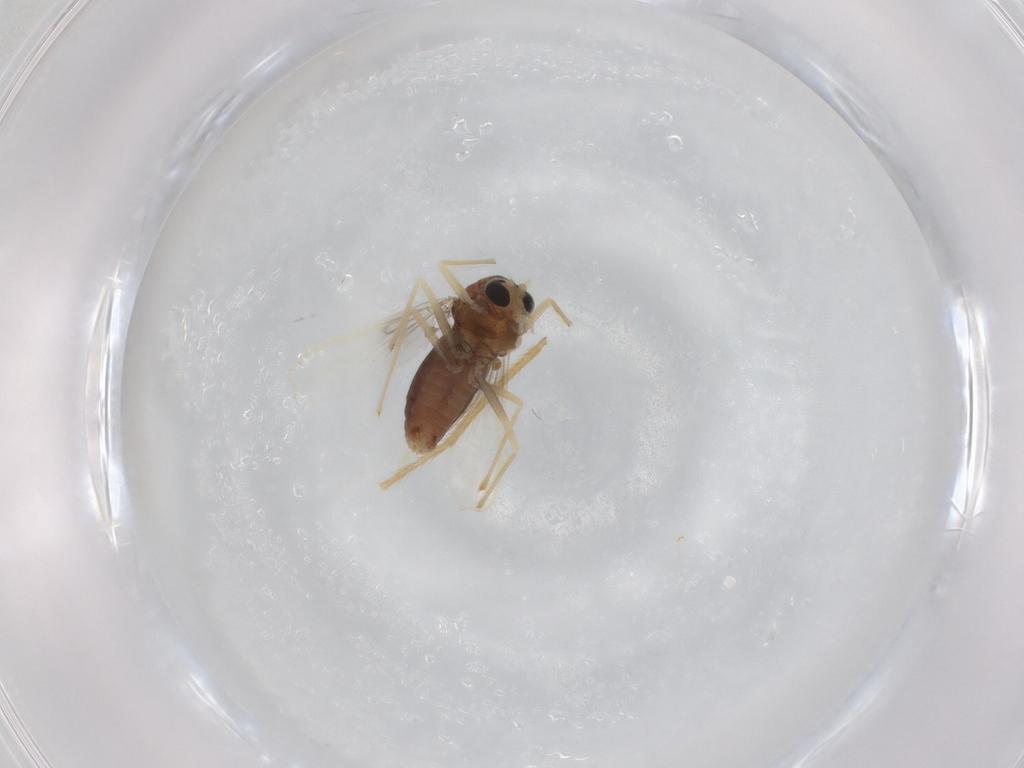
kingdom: Animalia
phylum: Arthropoda
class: Insecta
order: Diptera
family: Chironomidae
